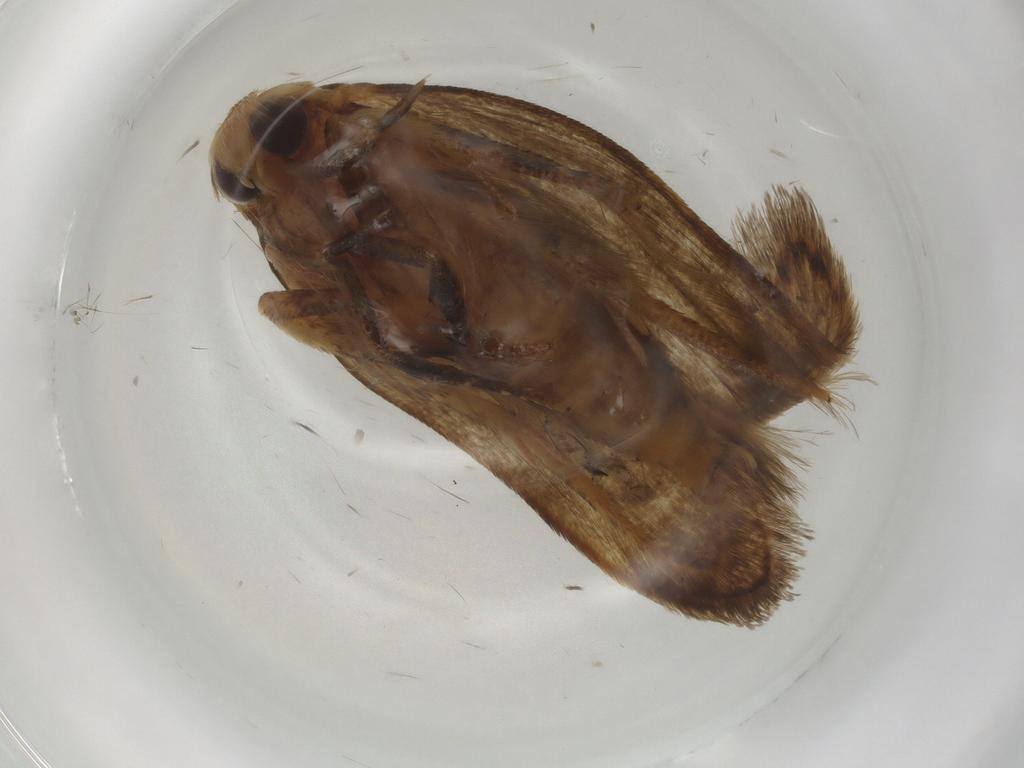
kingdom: Animalia
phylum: Arthropoda
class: Insecta
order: Lepidoptera
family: Blastobasidae
